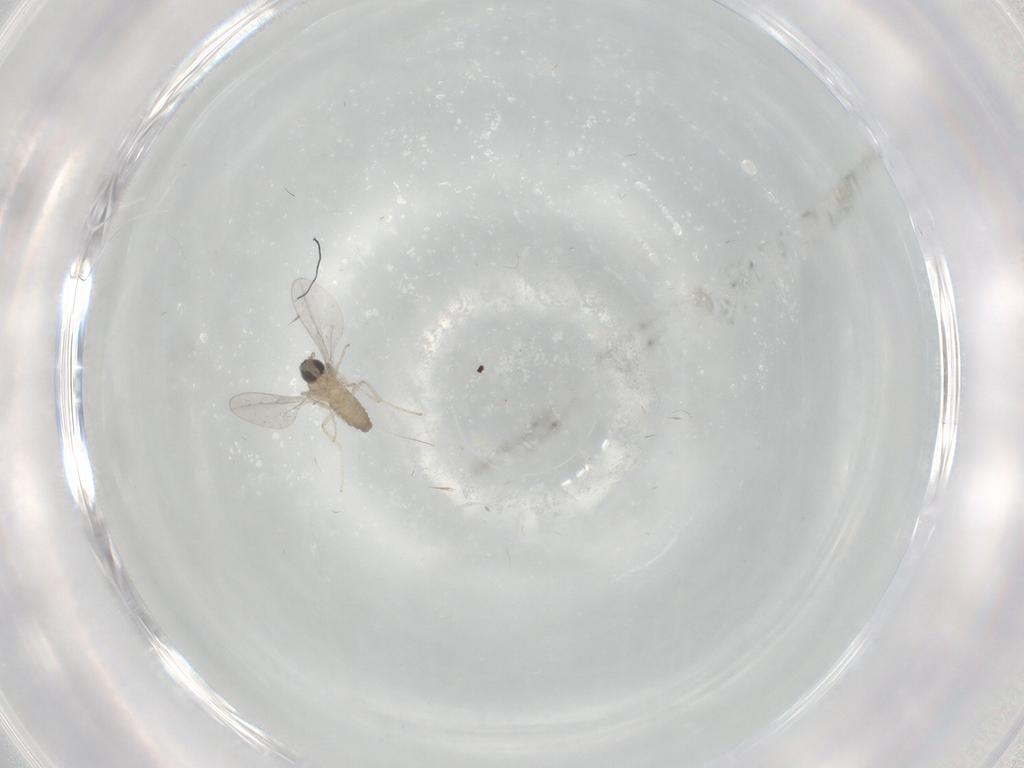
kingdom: Animalia
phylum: Arthropoda
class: Insecta
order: Diptera
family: Cecidomyiidae
